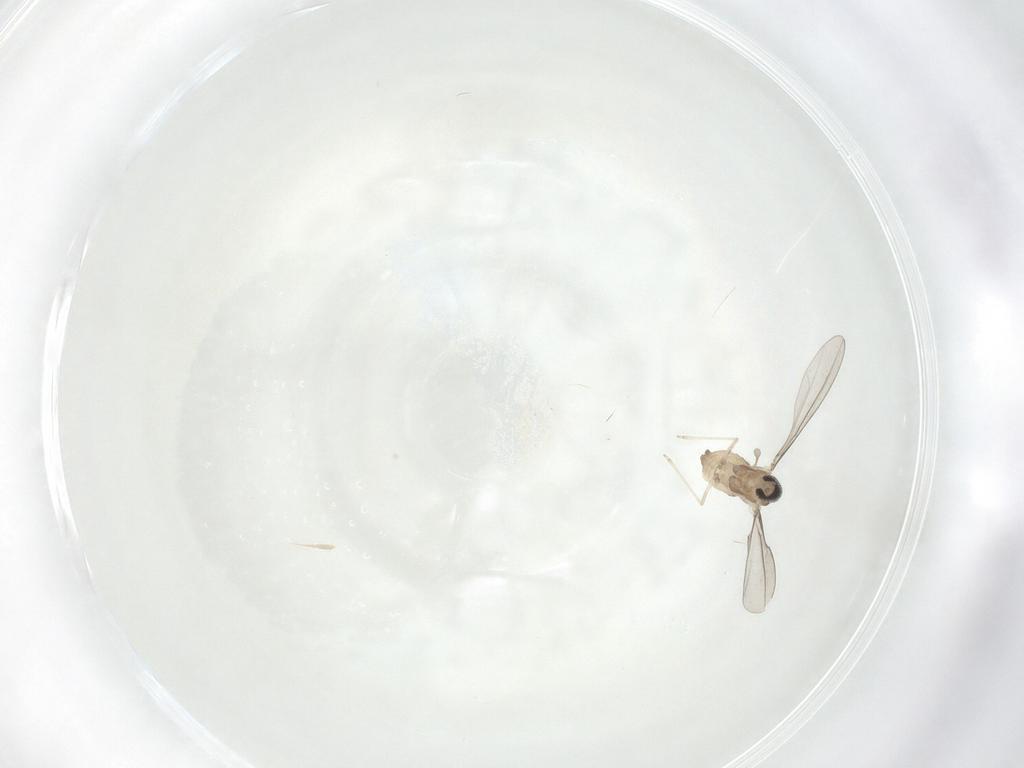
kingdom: Animalia
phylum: Arthropoda
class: Insecta
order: Diptera
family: Cecidomyiidae
